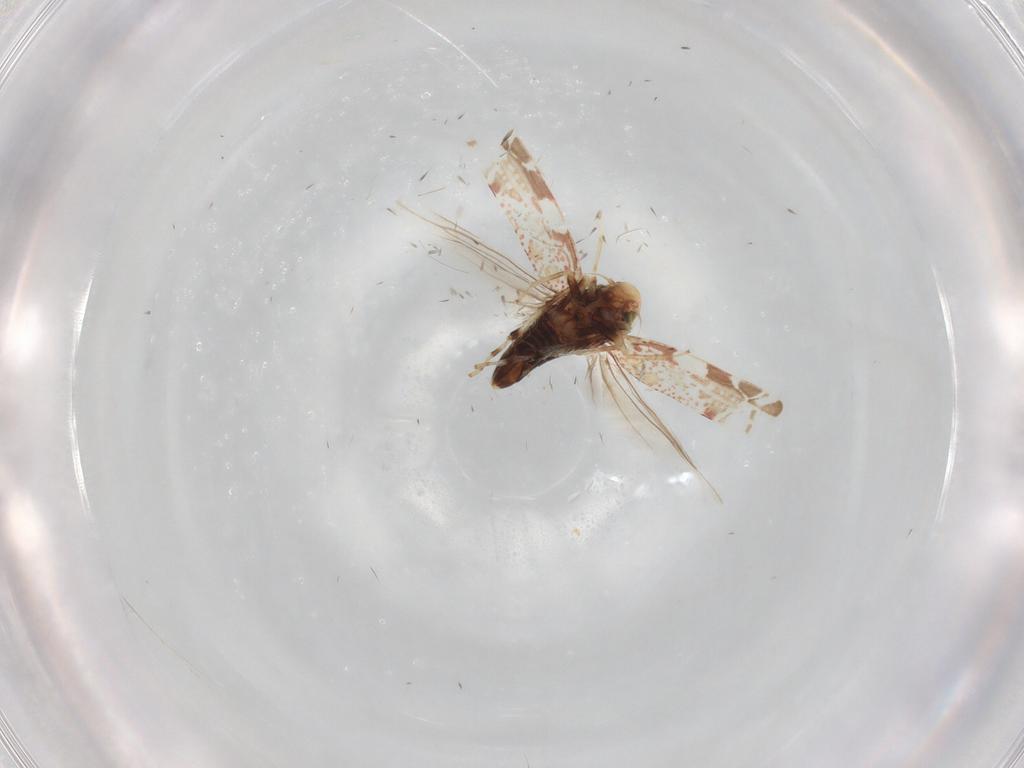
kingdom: Animalia
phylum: Arthropoda
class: Insecta
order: Hemiptera
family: Cicadellidae
